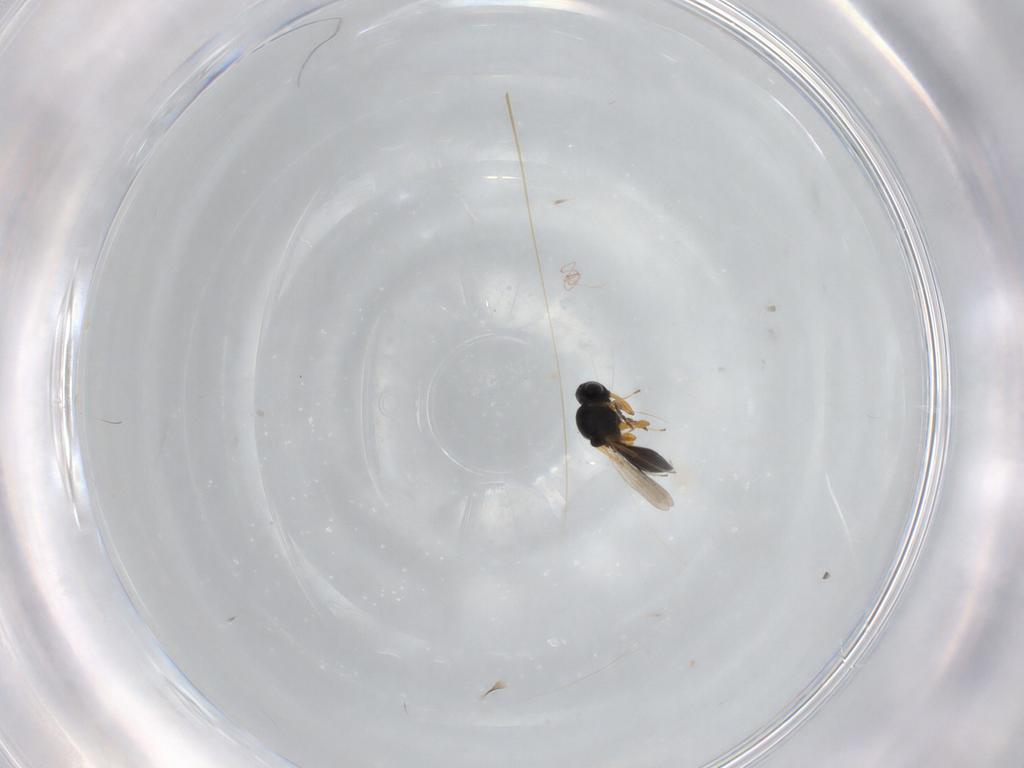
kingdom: Animalia
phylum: Arthropoda
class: Insecta
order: Hymenoptera
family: Platygastridae
